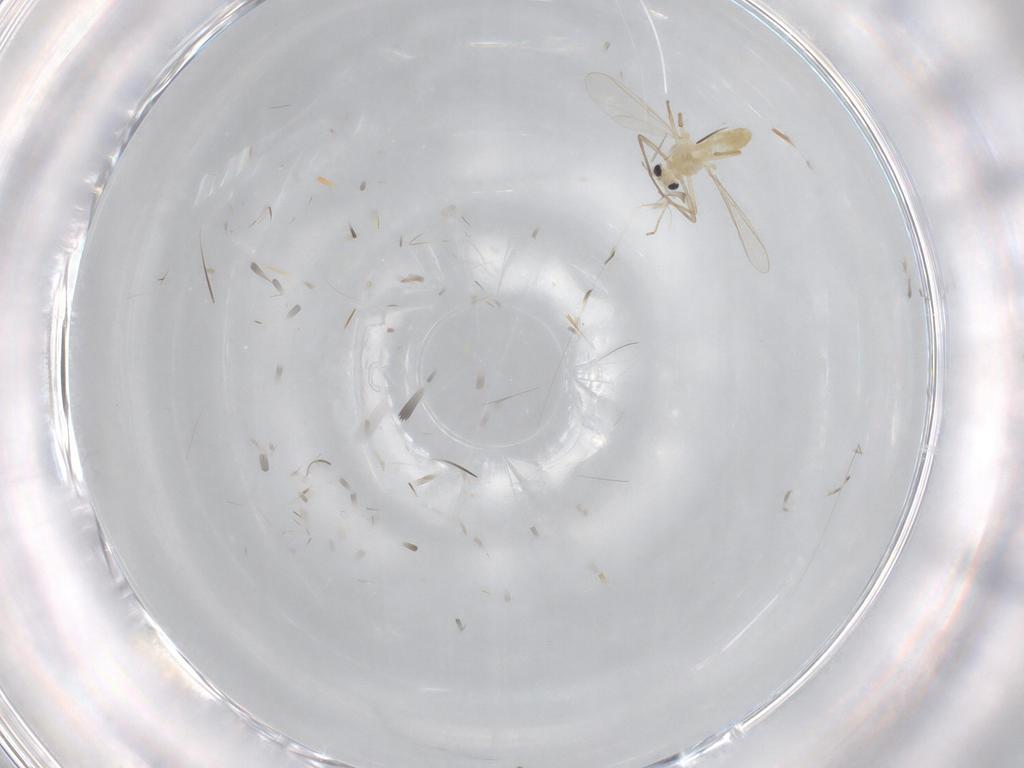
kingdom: Animalia
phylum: Arthropoda
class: Insecta
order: Diptera
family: Chironomidae
